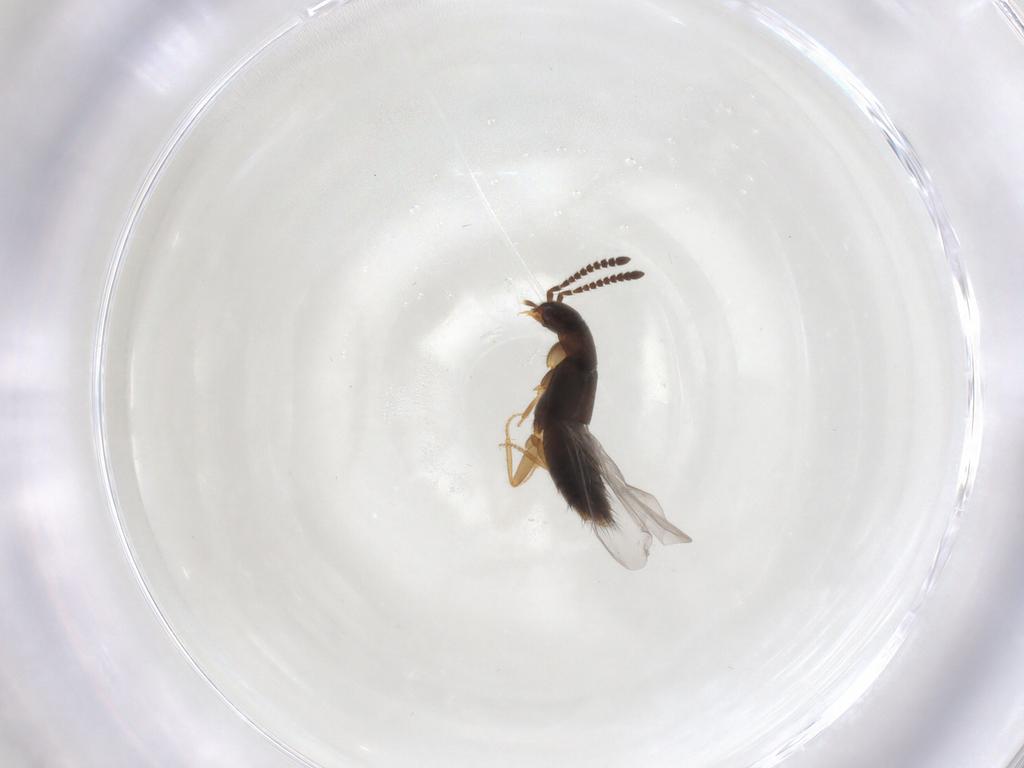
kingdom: Animalia
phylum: Arthropoda
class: Insecta
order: Coleoptera
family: Staphylinidae
